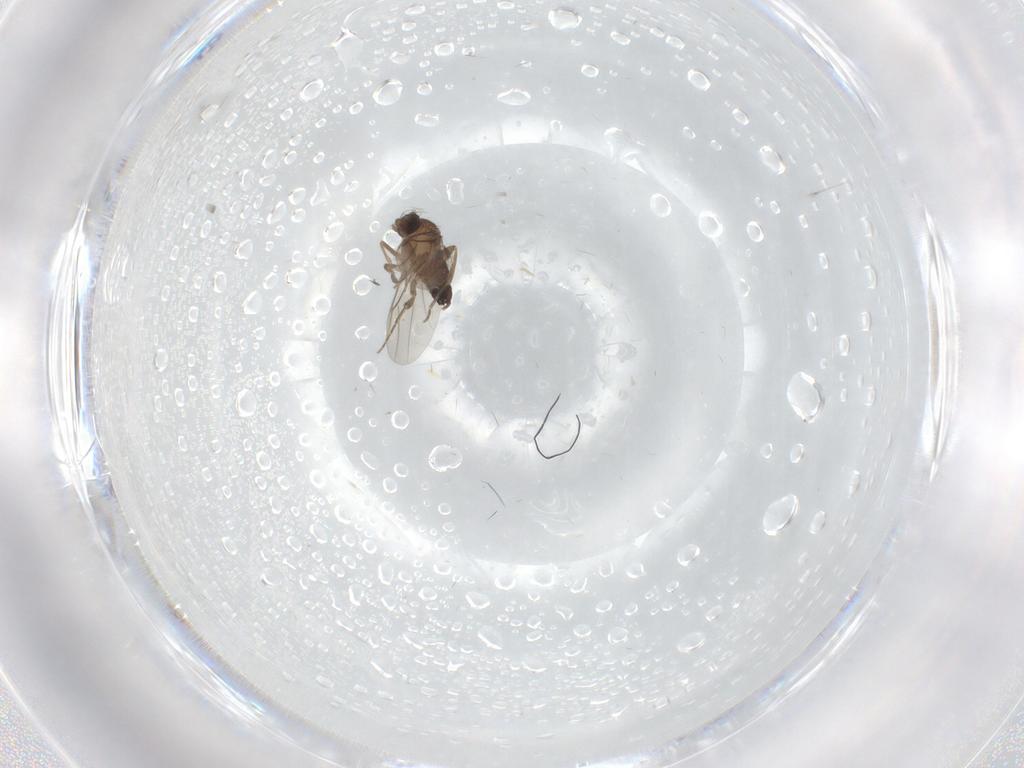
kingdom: Animalia
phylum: Arthropoda
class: Insecta
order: Diptera
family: Phoridae
